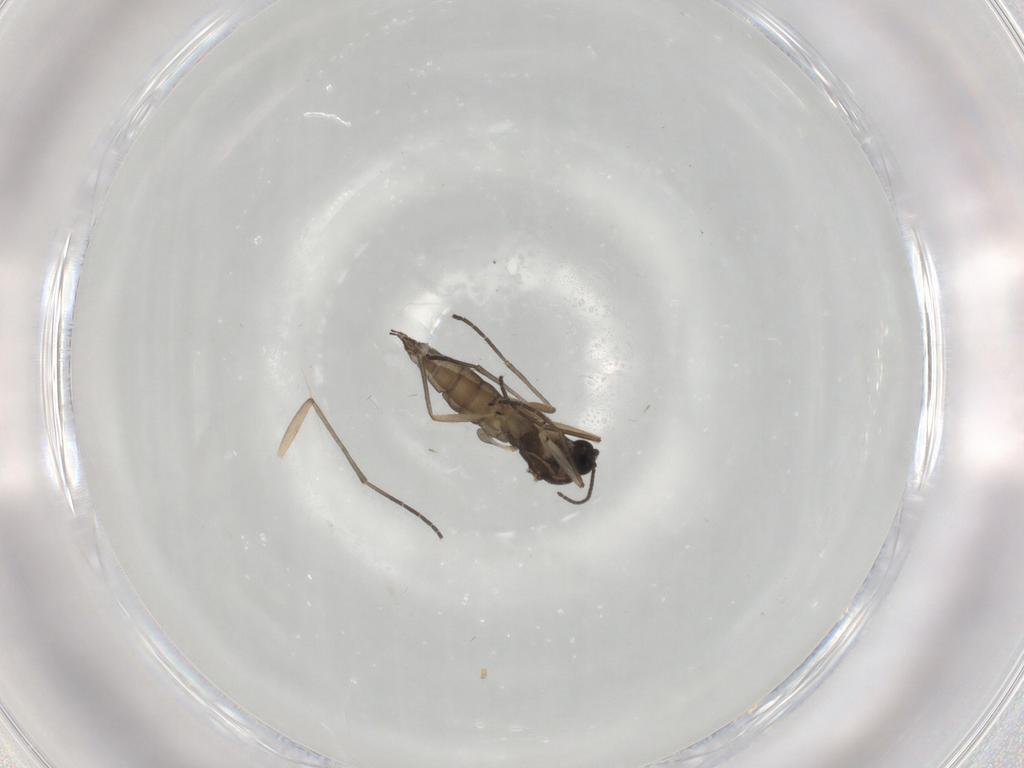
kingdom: Animalia
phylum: Arthropoda
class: Insecta
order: Diptera
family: Sciaridae
